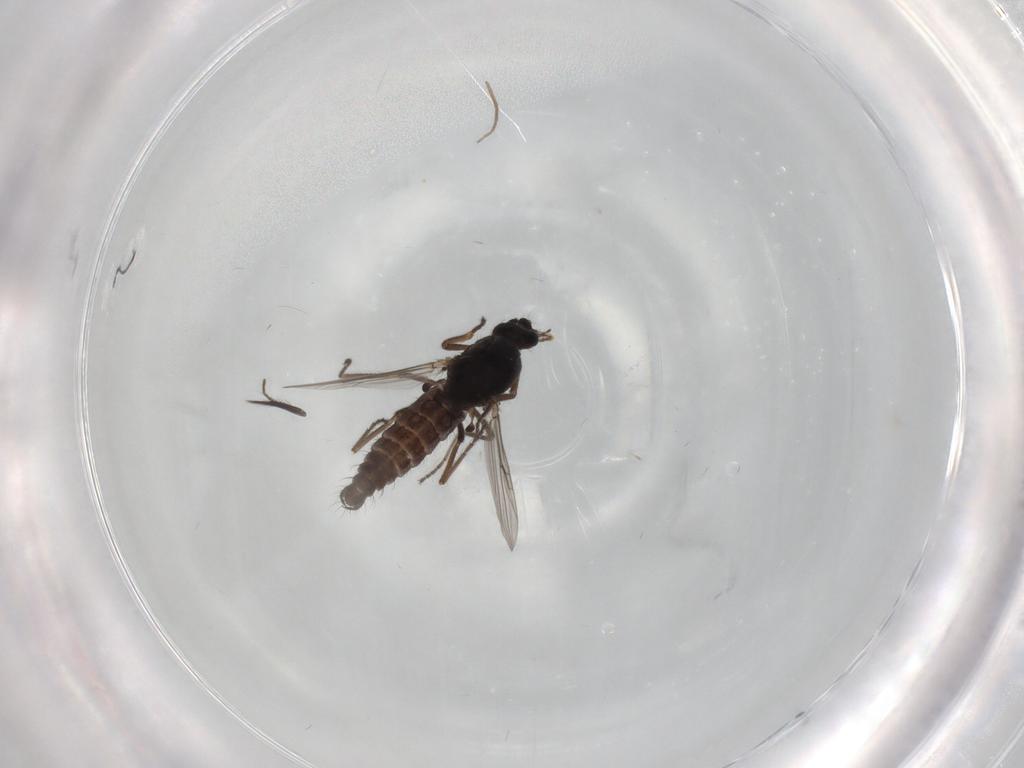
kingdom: Animalia
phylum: Arthropoda
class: Insecta
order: Diptera
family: Ceratopogonidae
